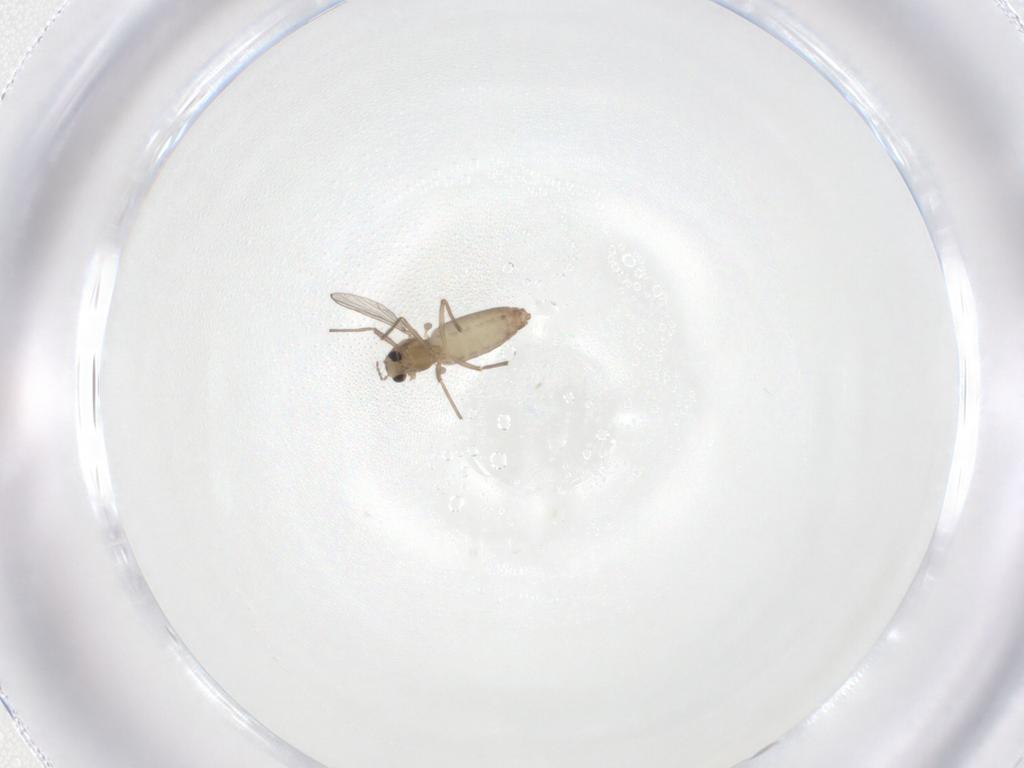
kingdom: Animalia
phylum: Arthropoda
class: Insecta
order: Diptera
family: Chironomidae
